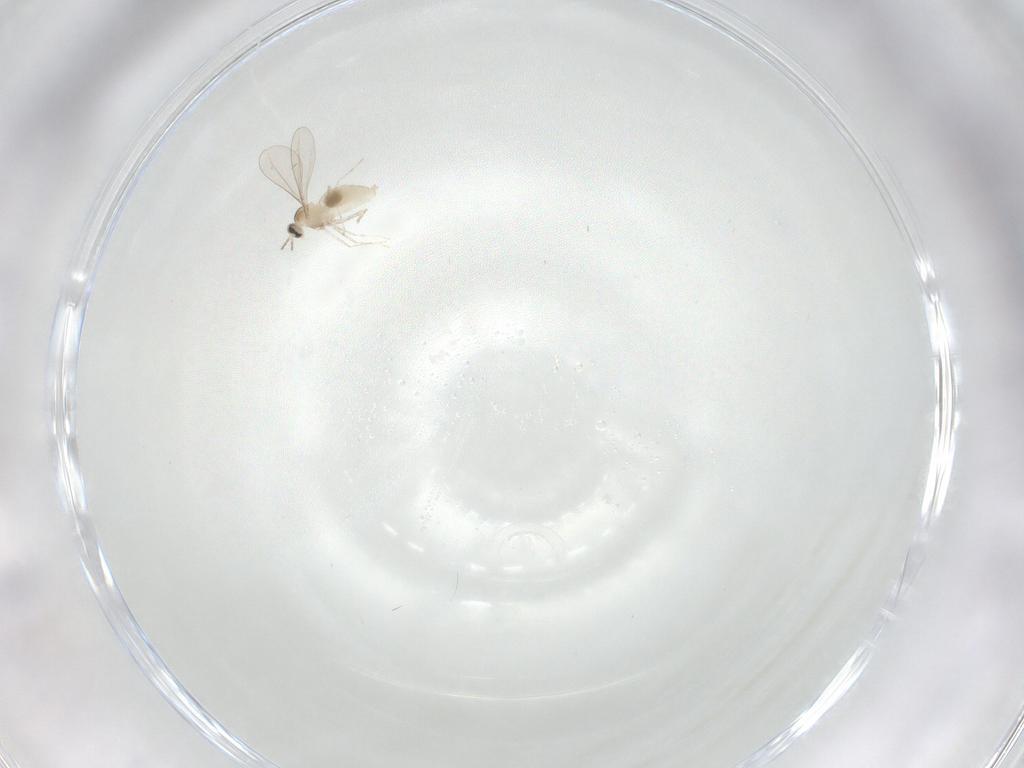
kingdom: Animalia
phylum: Arthropoda
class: Insecta
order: Diptera
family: Cecidomyiidae
